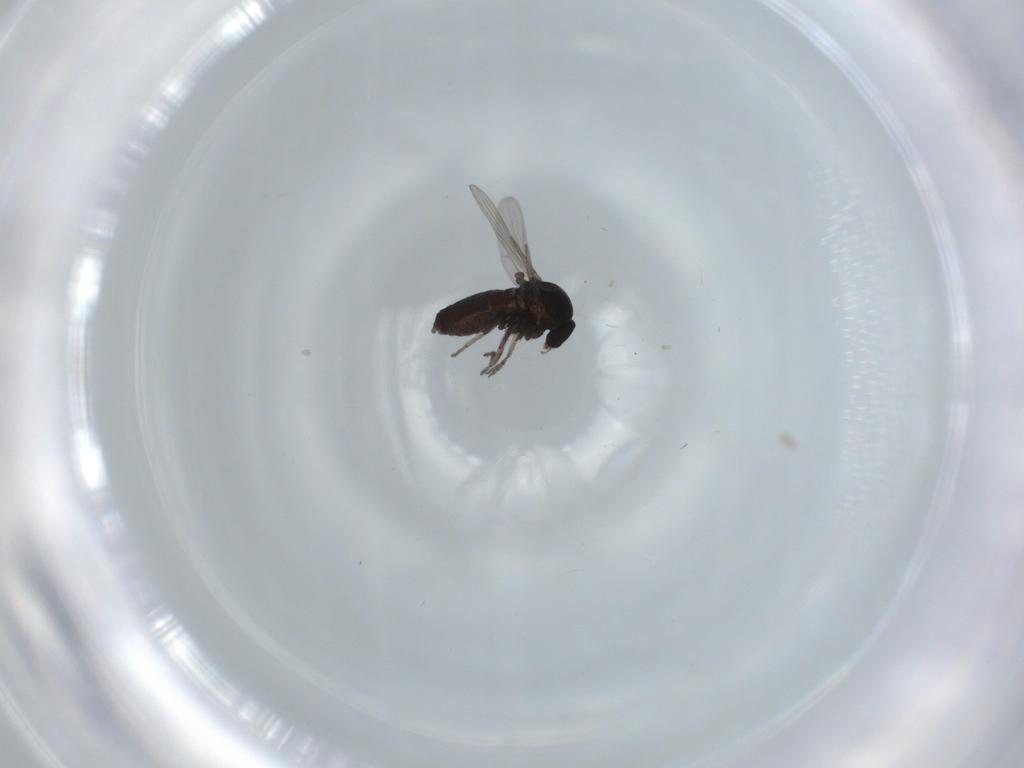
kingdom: Animalia
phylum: Arthropoda
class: Insecta
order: Diptera
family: Ceratopogonidae
